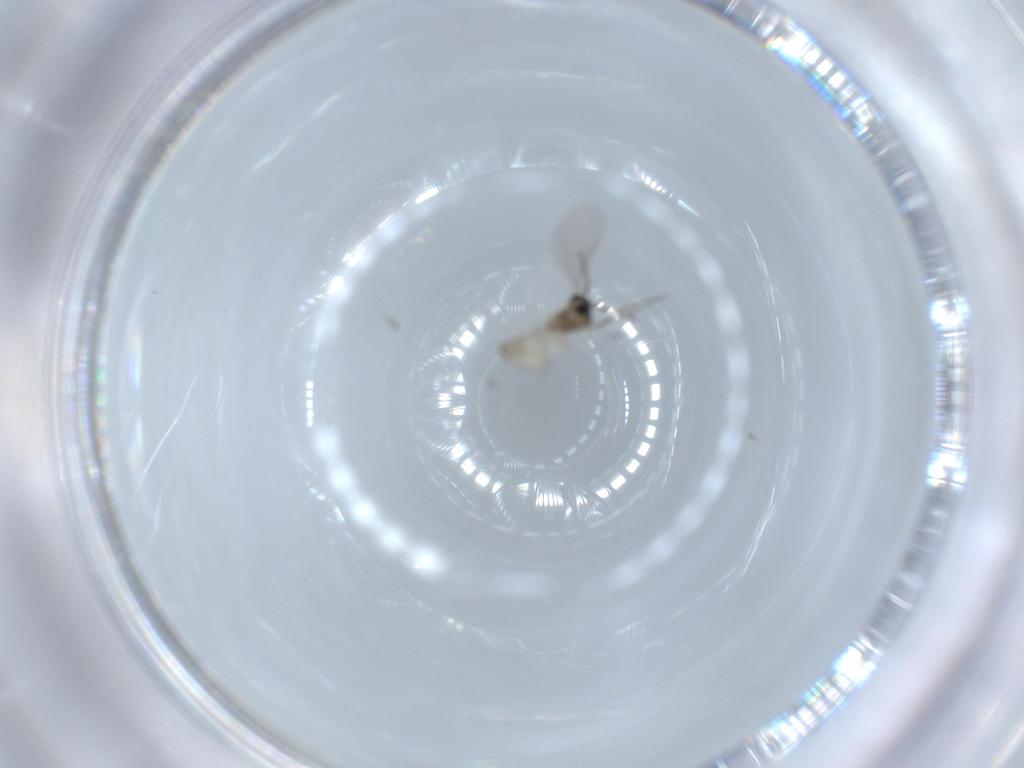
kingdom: Animalia
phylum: Arthropoda
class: Insecta
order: Diptera
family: Cecidomyiidae
